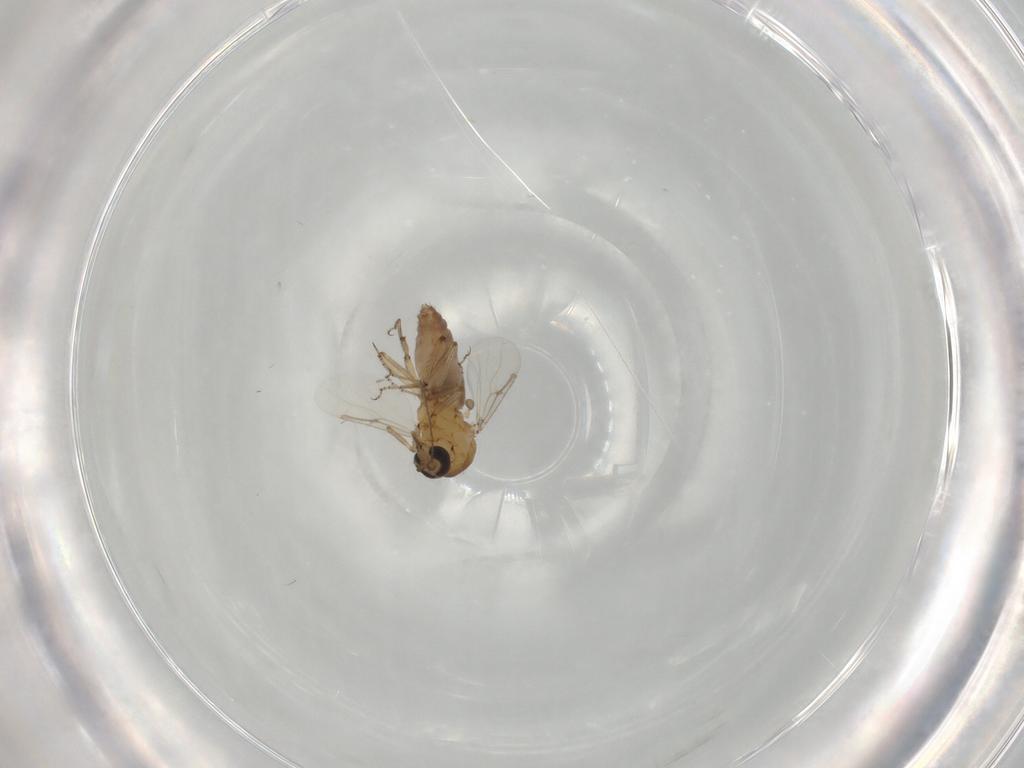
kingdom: Animalia
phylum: Arthropoda
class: Insecta
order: Diptera
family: Ceratopogonidae
